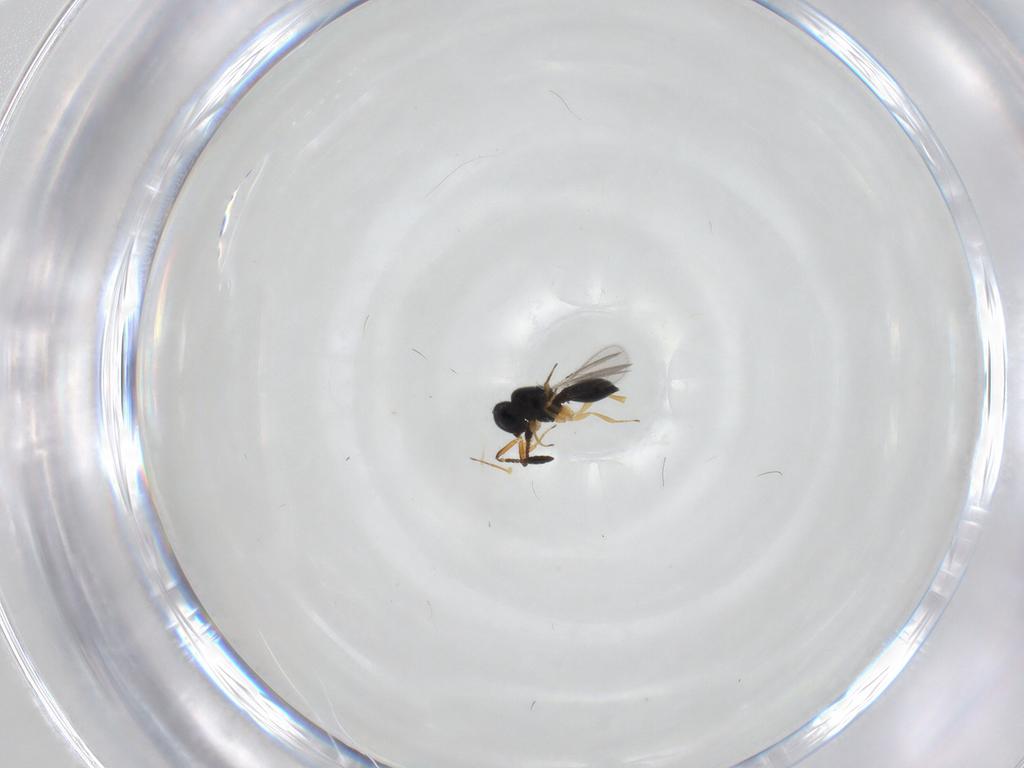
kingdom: Animalia
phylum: Arthropoda
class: Insecta
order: Hymenoptera
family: Scelionidae
